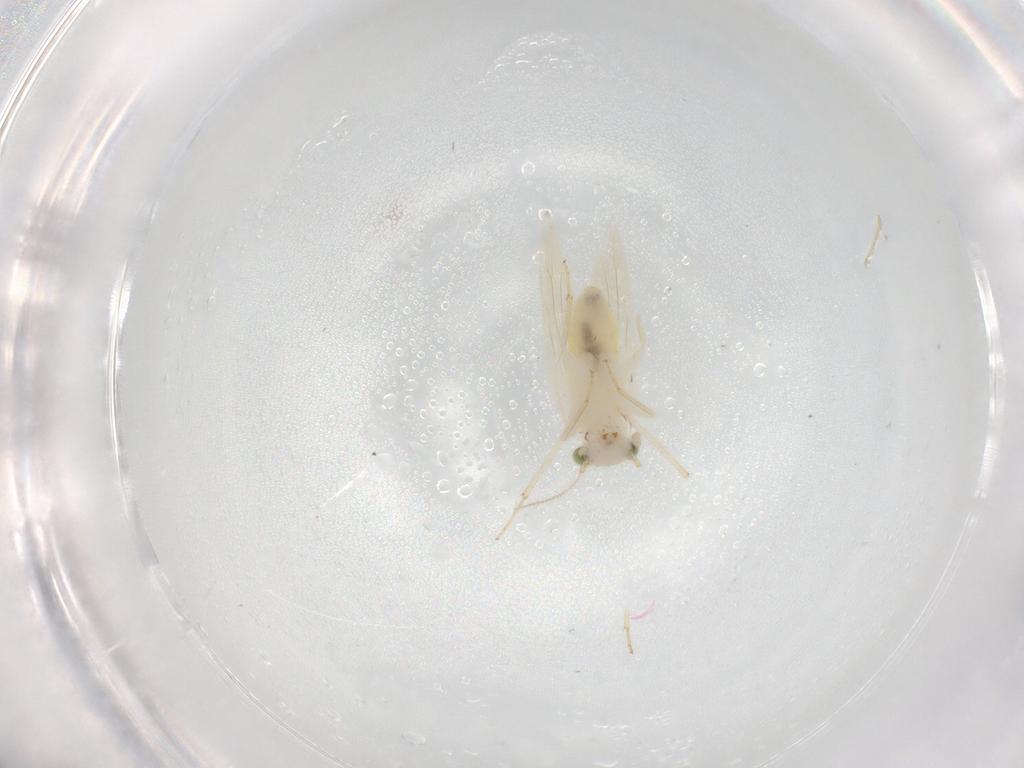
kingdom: Animalia
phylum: Arthropoda
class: Insecta
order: Psocodea
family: Lepidopsocidae
